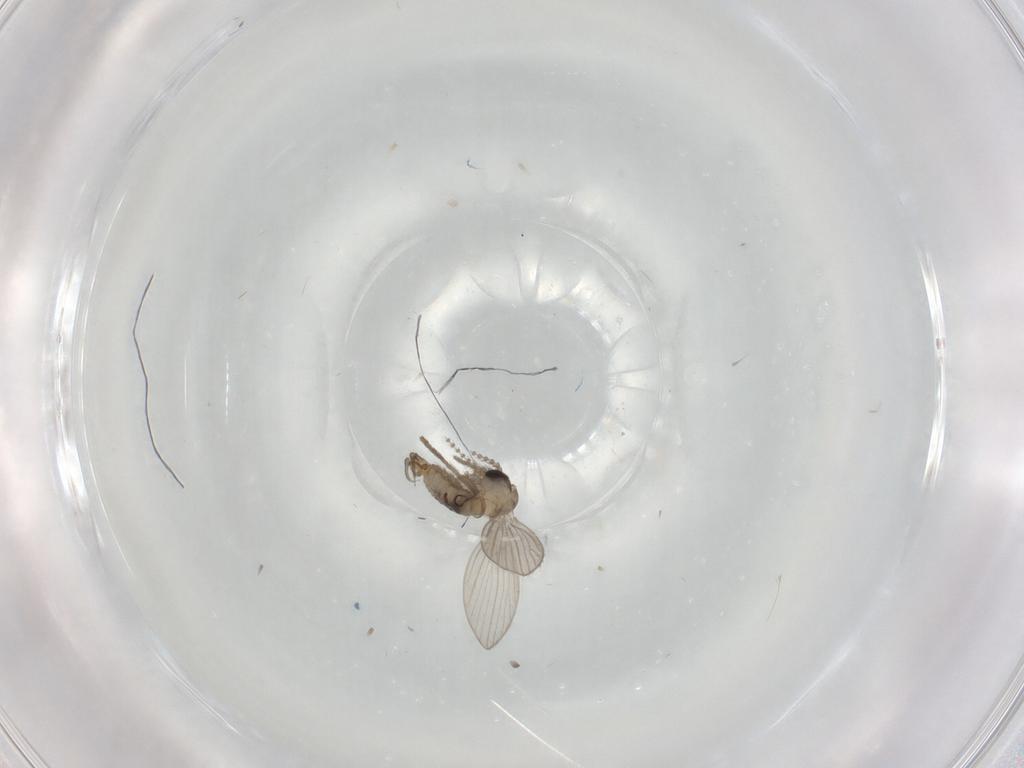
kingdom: Animalia
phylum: Arthropoda
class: Insecta
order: Diptera
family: Psychodidae
